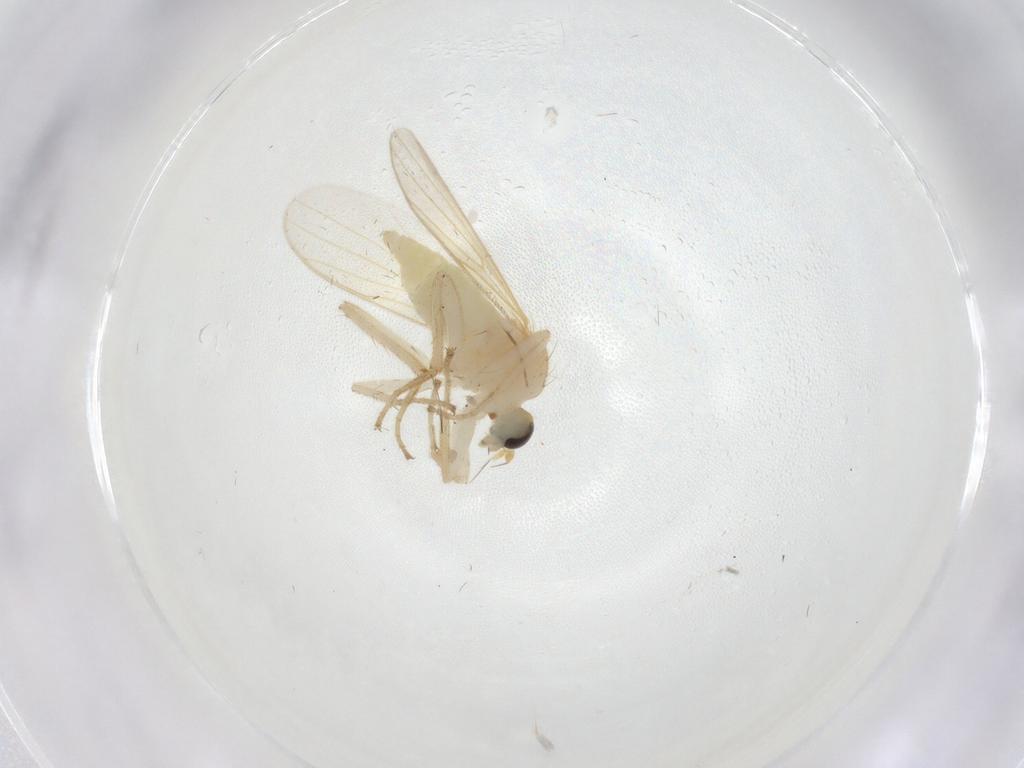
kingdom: Animalia
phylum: Arthropoda
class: Insecta
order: Diptera
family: Hybotidae
